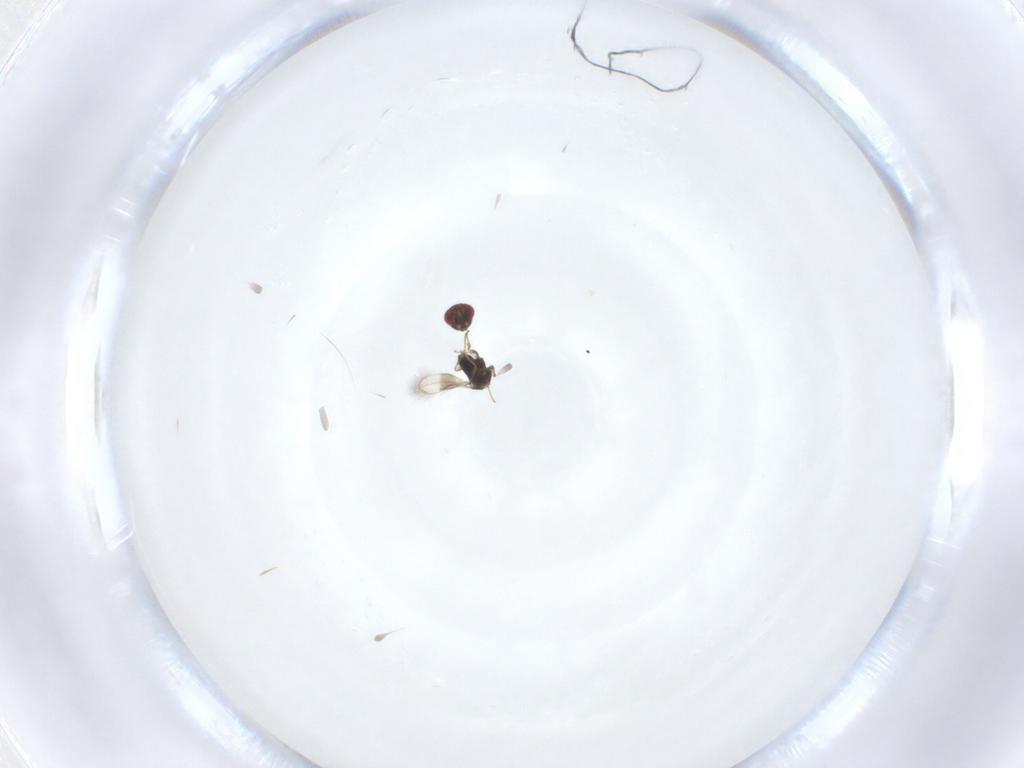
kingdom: Animalia
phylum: Arthropoda
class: Insecta
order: Hymenoptera
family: Azotidae
